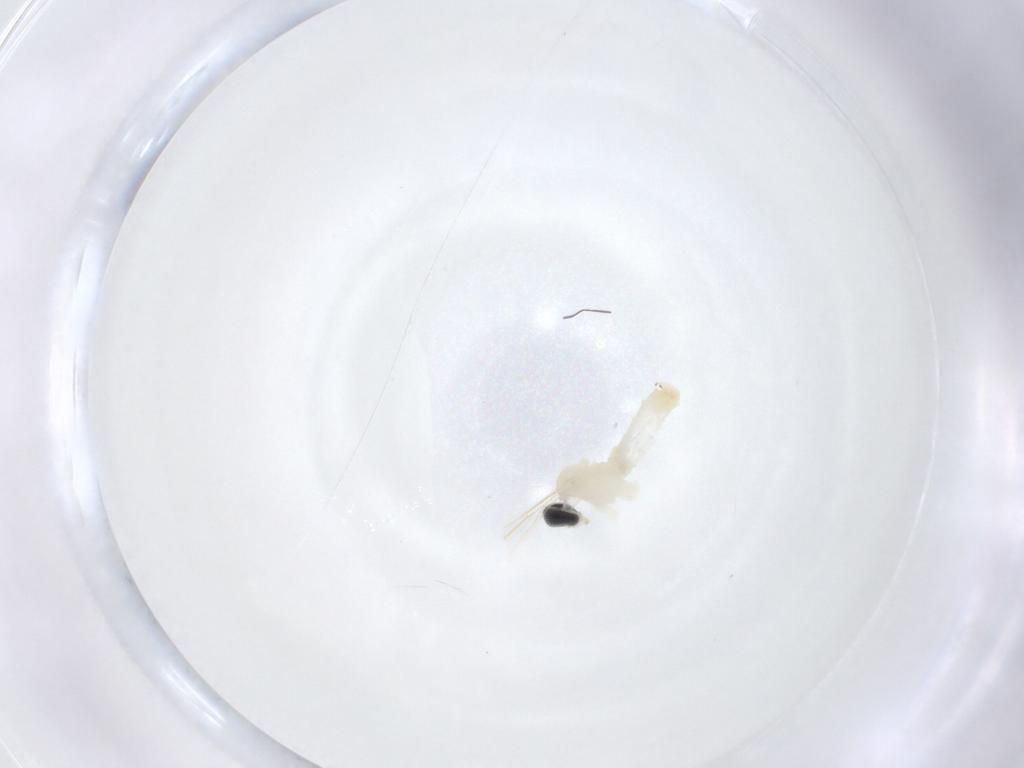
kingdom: Animalia
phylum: Arthropoda
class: Insecta
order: Diptera
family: Cecidomyiidae
